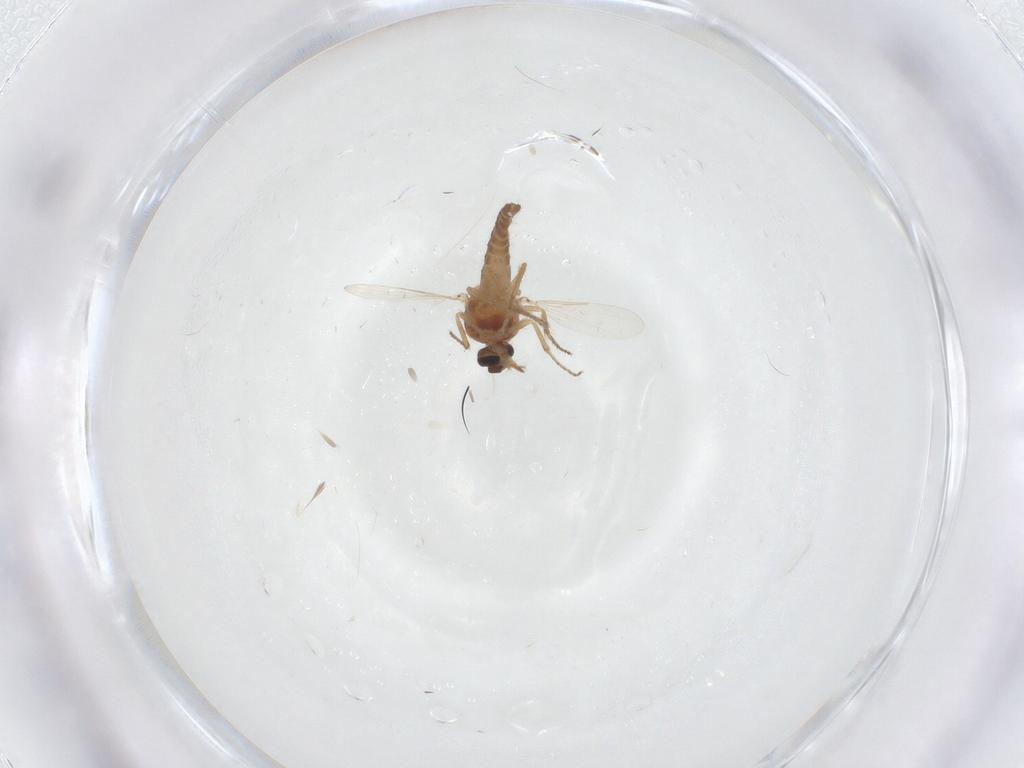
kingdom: Animalia
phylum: Arthropoda
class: Insecta
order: Diptera
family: Ceratopogonidae
